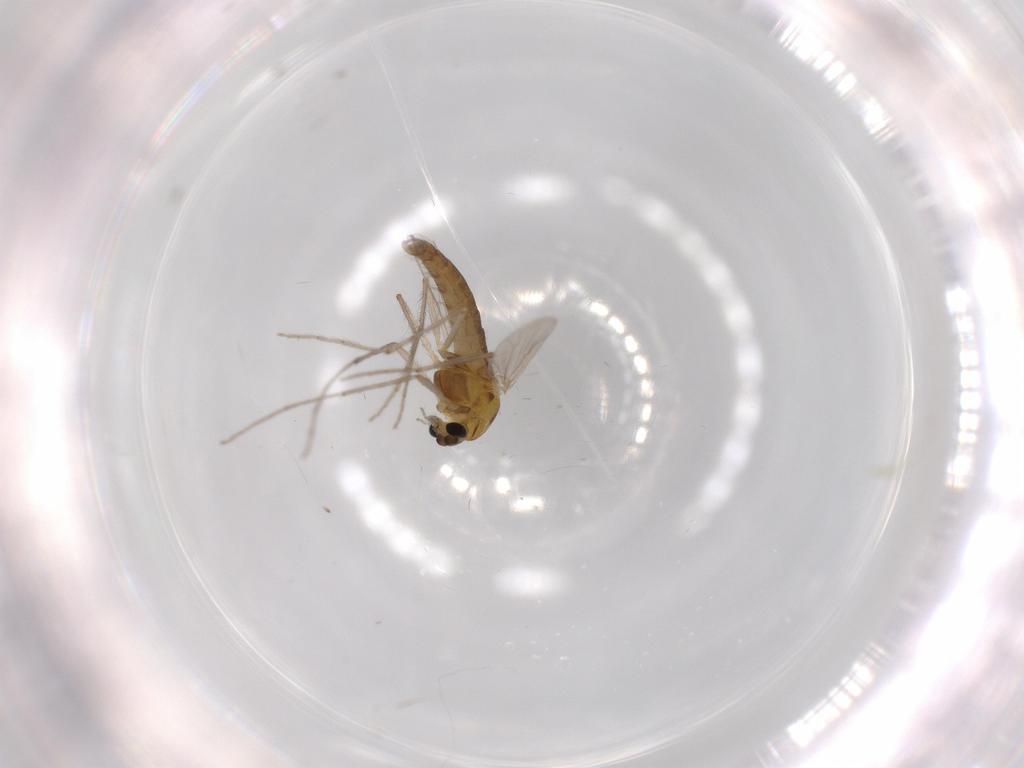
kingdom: Animalia
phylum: Arthropoda
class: Insecta
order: Diptera
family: Chironomidae
